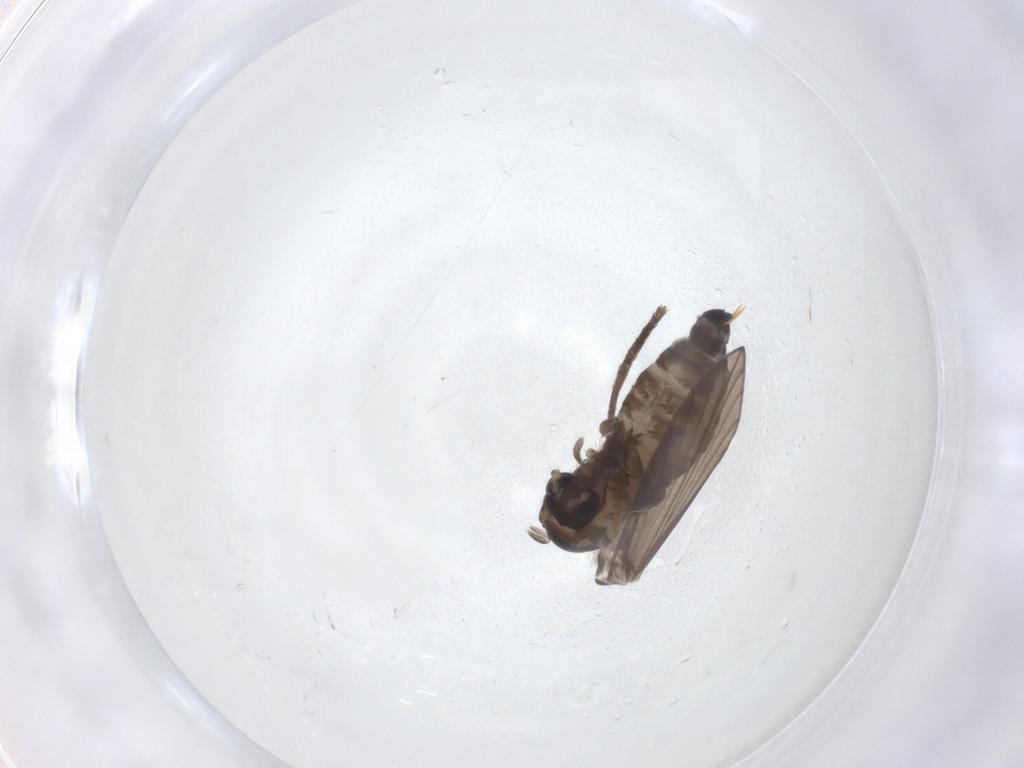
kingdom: Animalia
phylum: Arthropoda
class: Insecta
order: Diptera
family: Psychodidae
